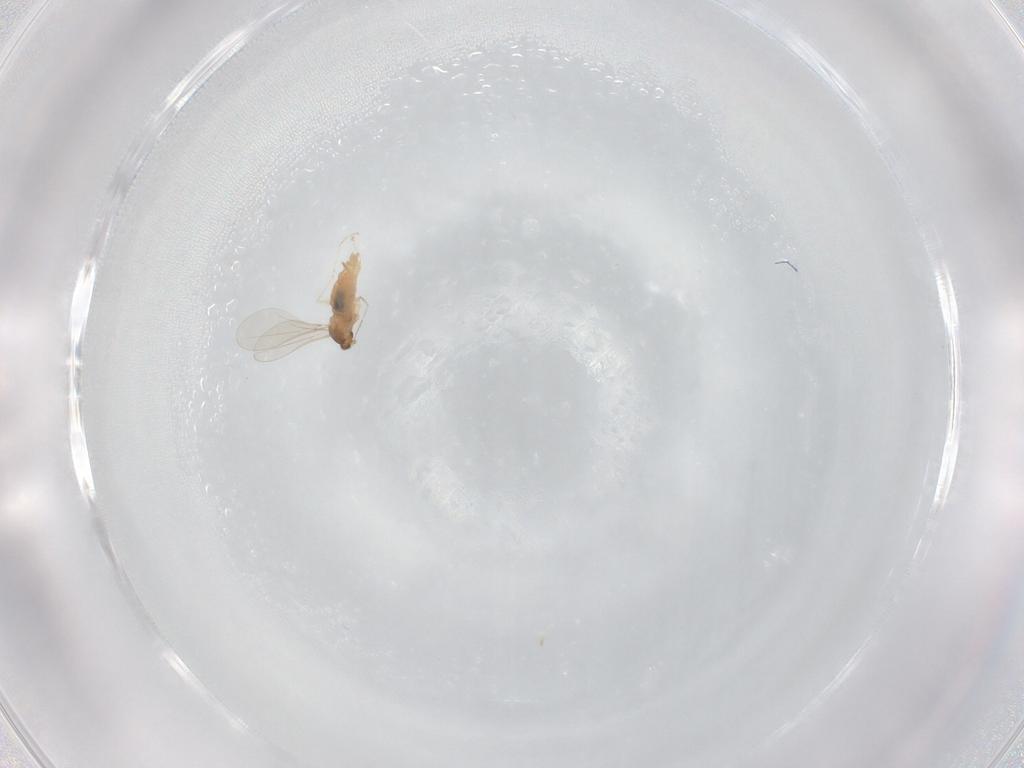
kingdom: Animalia
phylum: Arthropoda
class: Insecta
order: Diptera
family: Cecidomyiidae
